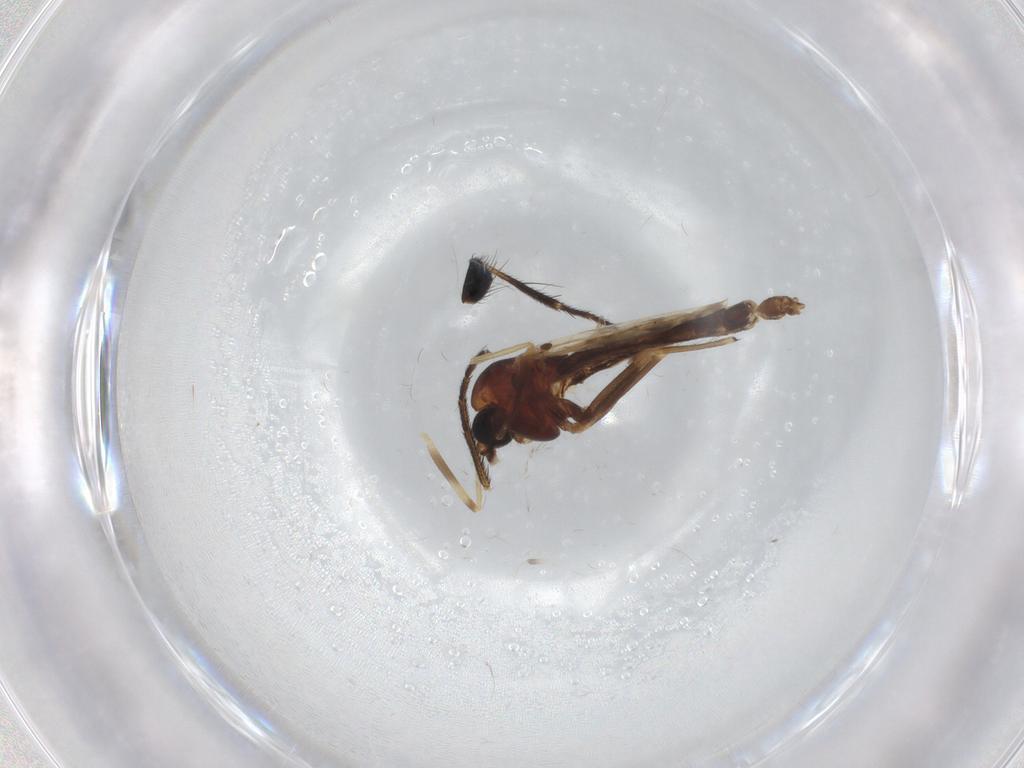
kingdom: Animalia
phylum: Arthropoda
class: Insecta
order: Diptera
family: Chironomidae
